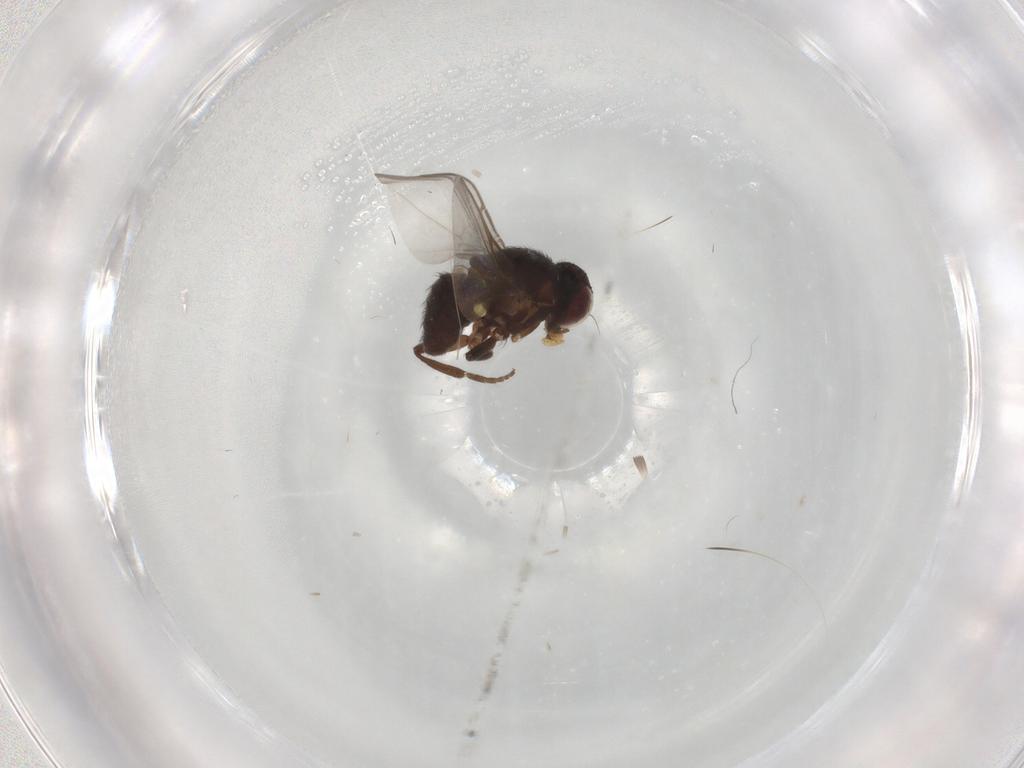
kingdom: Animalia
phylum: Arthropoda
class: Insecta
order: Diptera
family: Agromyzidae
